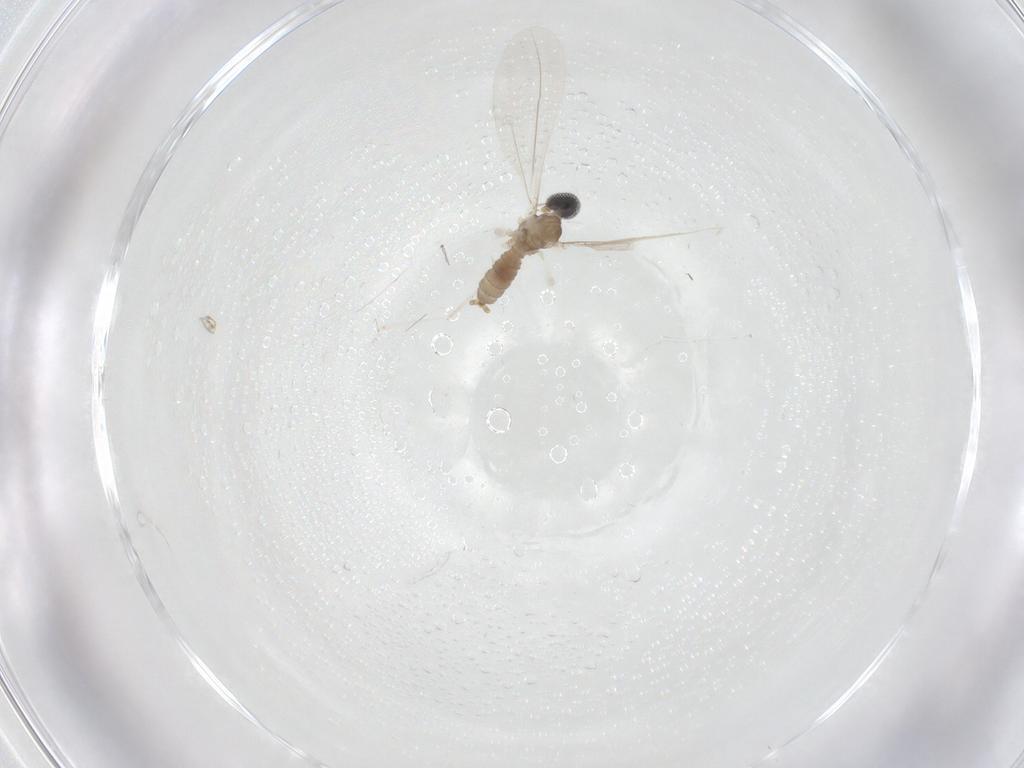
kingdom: Animalia
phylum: Arthropoda
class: Insecta
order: Diptera
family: Cecidomyiidae
